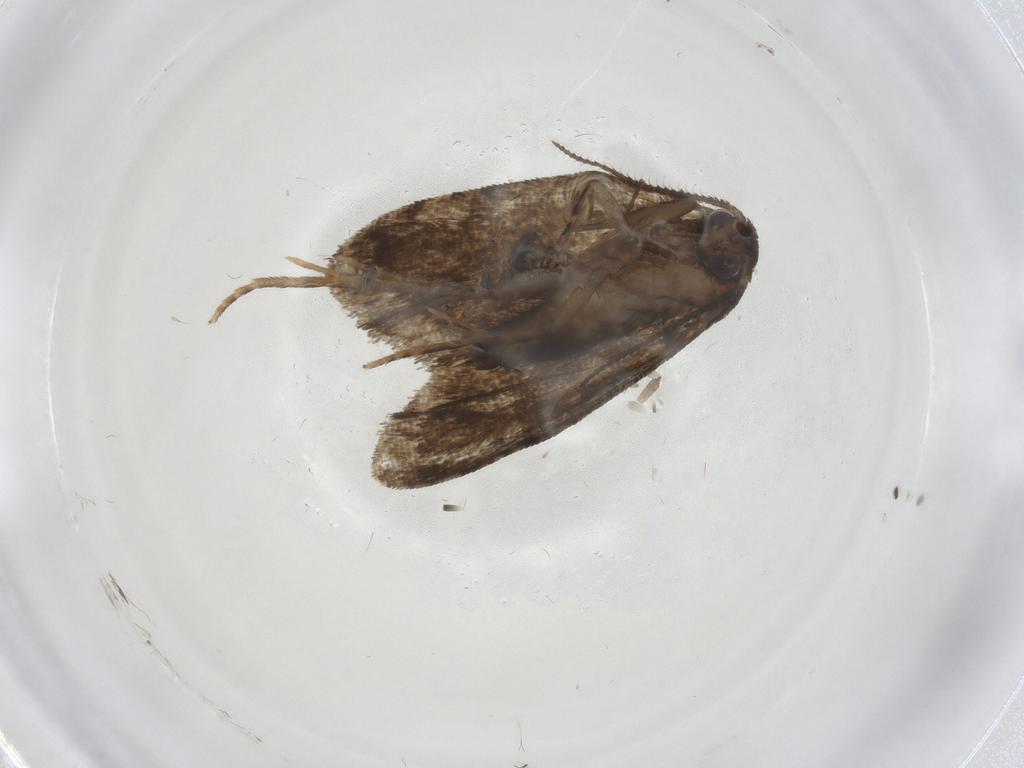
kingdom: Animalia
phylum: Arthropoda
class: Insecta
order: Lepidoptera
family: Tortricidae
